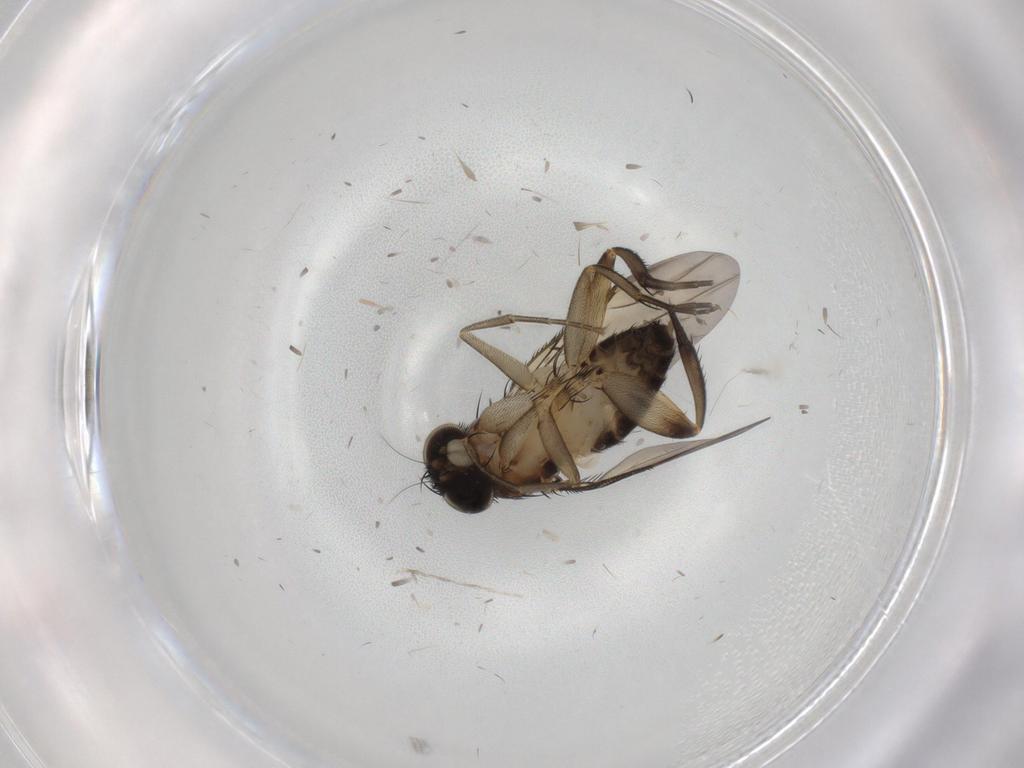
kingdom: Animalia
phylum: Arthropoda
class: Insecta
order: Diptera
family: Phoridae
